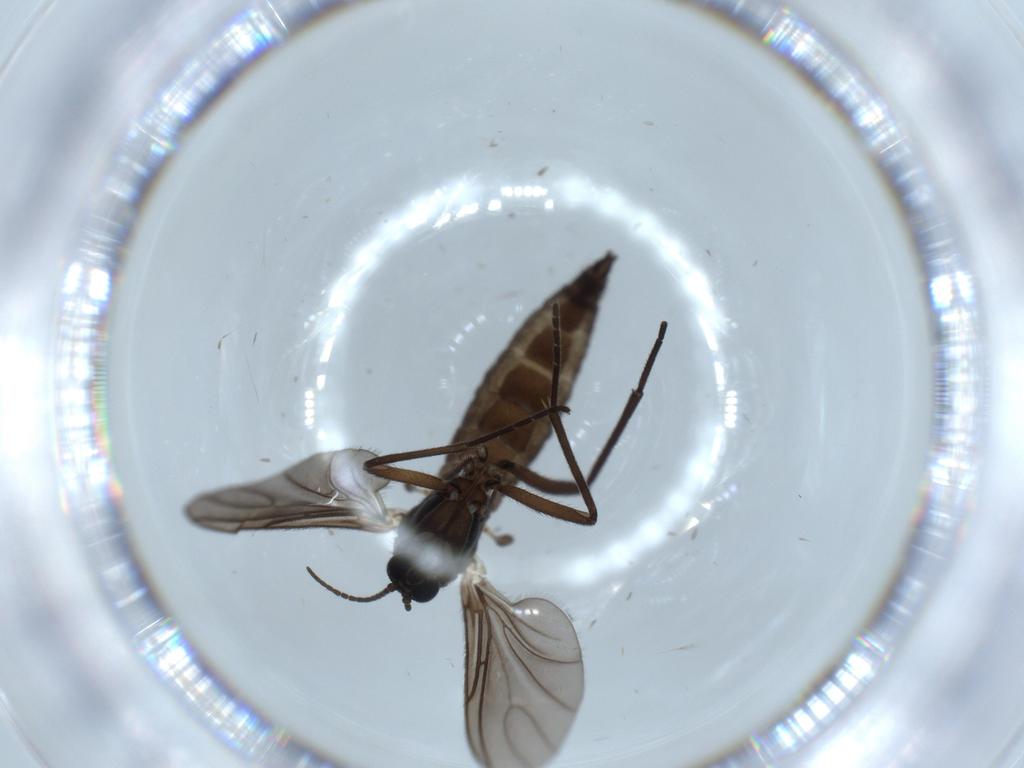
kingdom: Animalia
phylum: Arthropoda
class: Insecta
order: Diptera
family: Sciaridae
